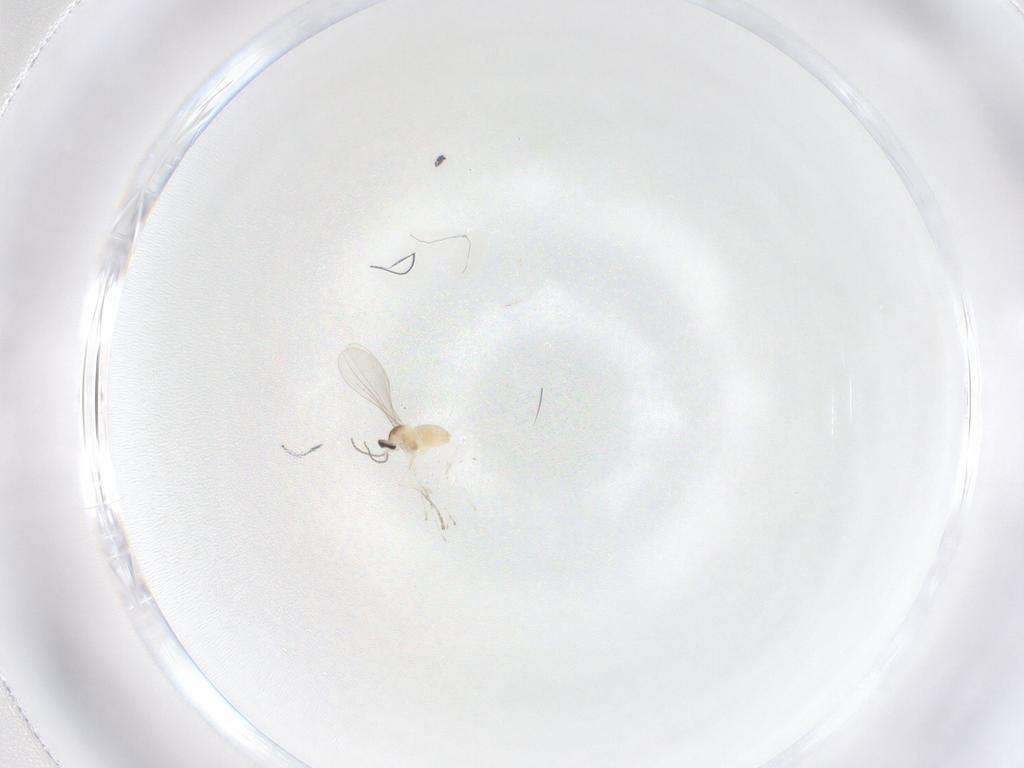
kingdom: Animalia
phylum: Arthropoda
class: Insecta
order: Diptera
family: Cecidomyiidae
